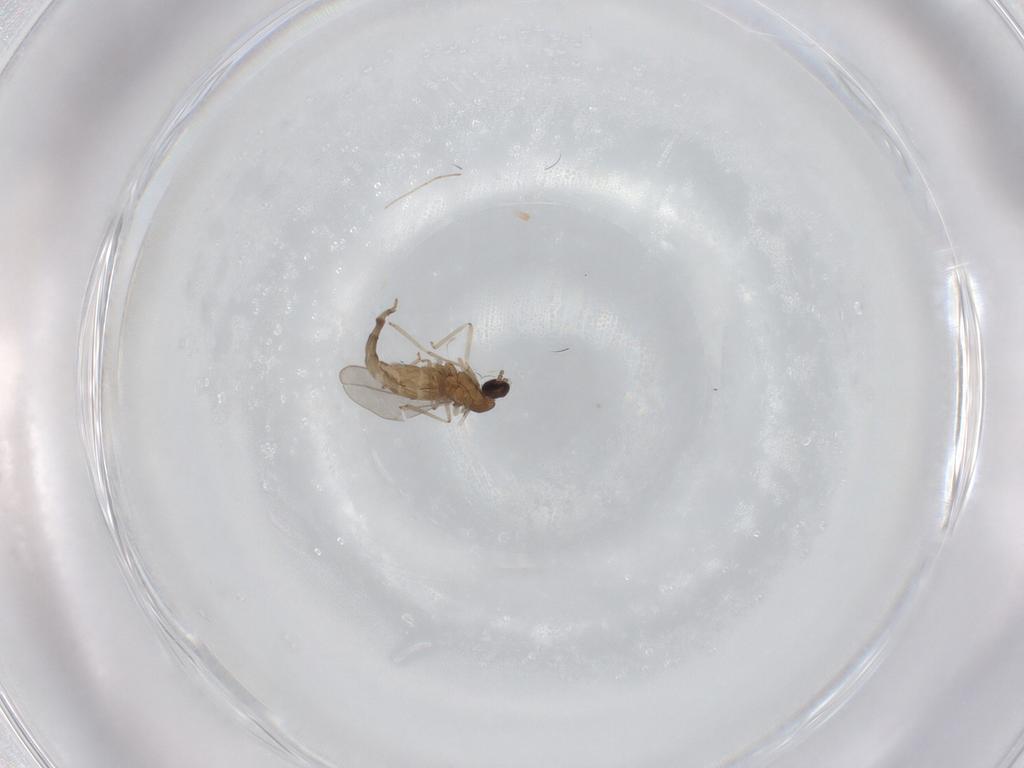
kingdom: Animalia
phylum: Arthropoda
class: Insecta
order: Diptera
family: Cecidomyiidae
